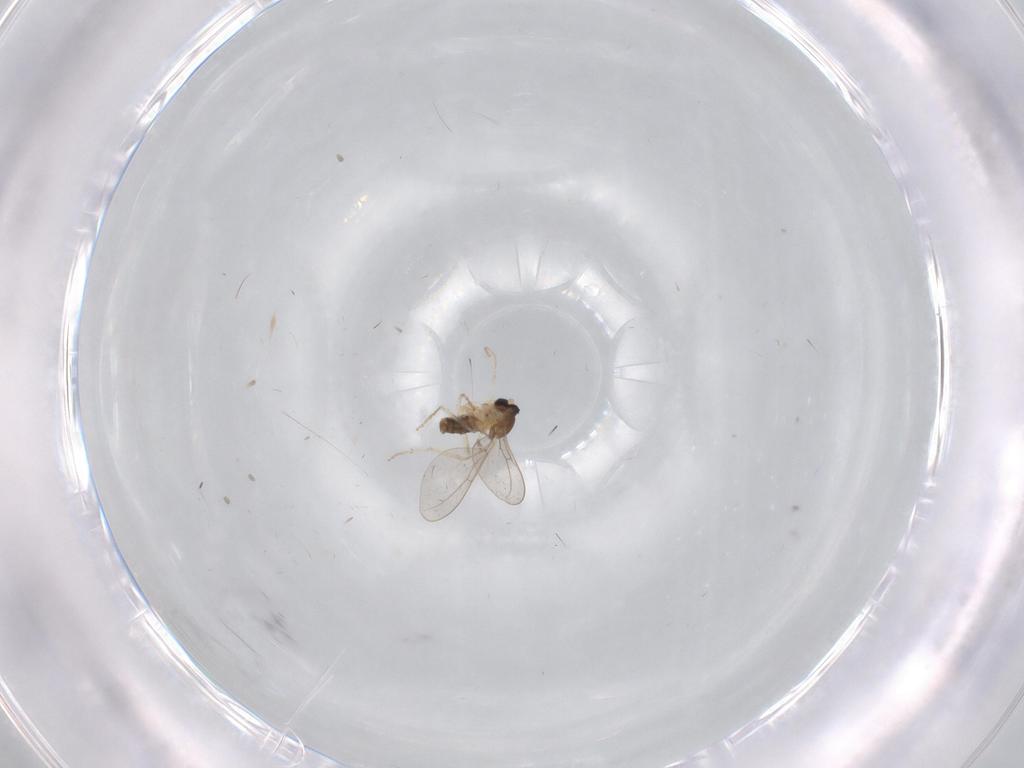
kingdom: Animalia
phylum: Arthropoda
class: Insecta
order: Diptera
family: Cecidomyiidae
